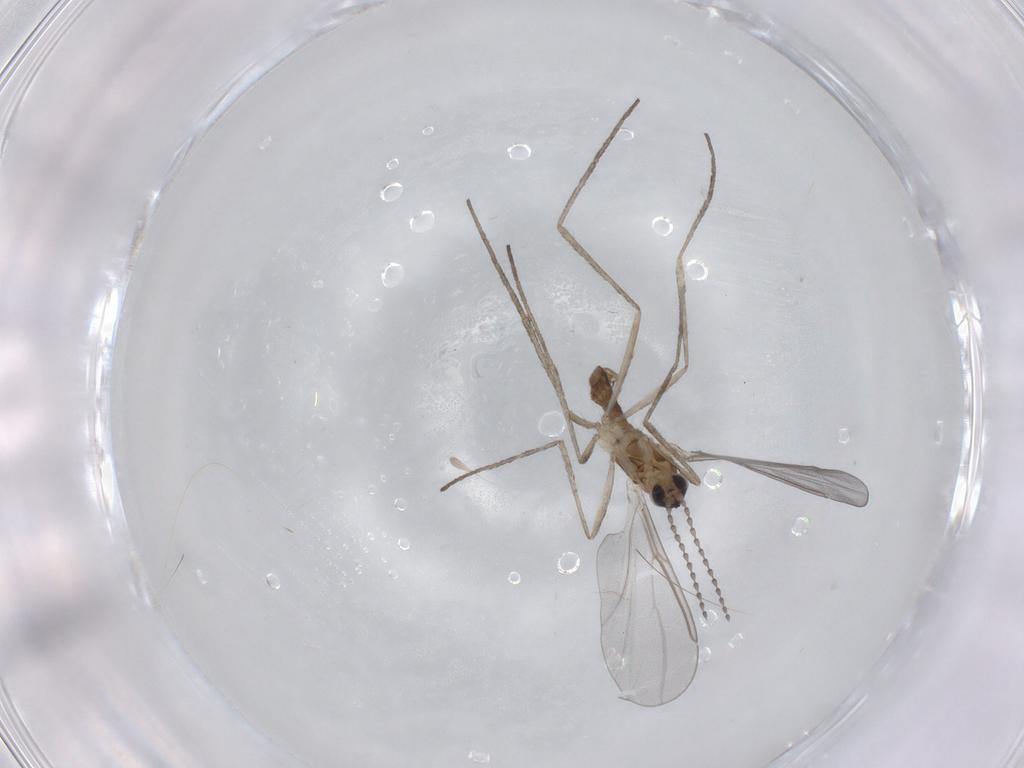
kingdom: Animalia
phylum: Arthropoda
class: Insecta
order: Diptera
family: Cecidomyiidae
